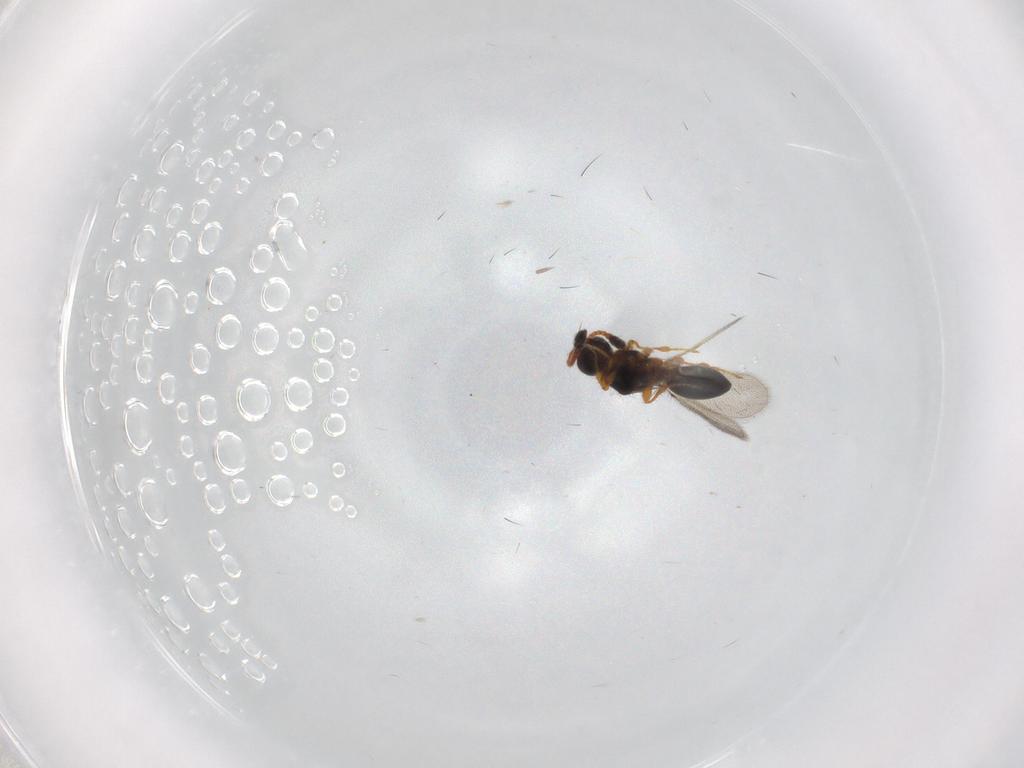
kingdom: Animalia
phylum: Arthropoda
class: Insecta
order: Hymenoptera
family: Diapriidae
